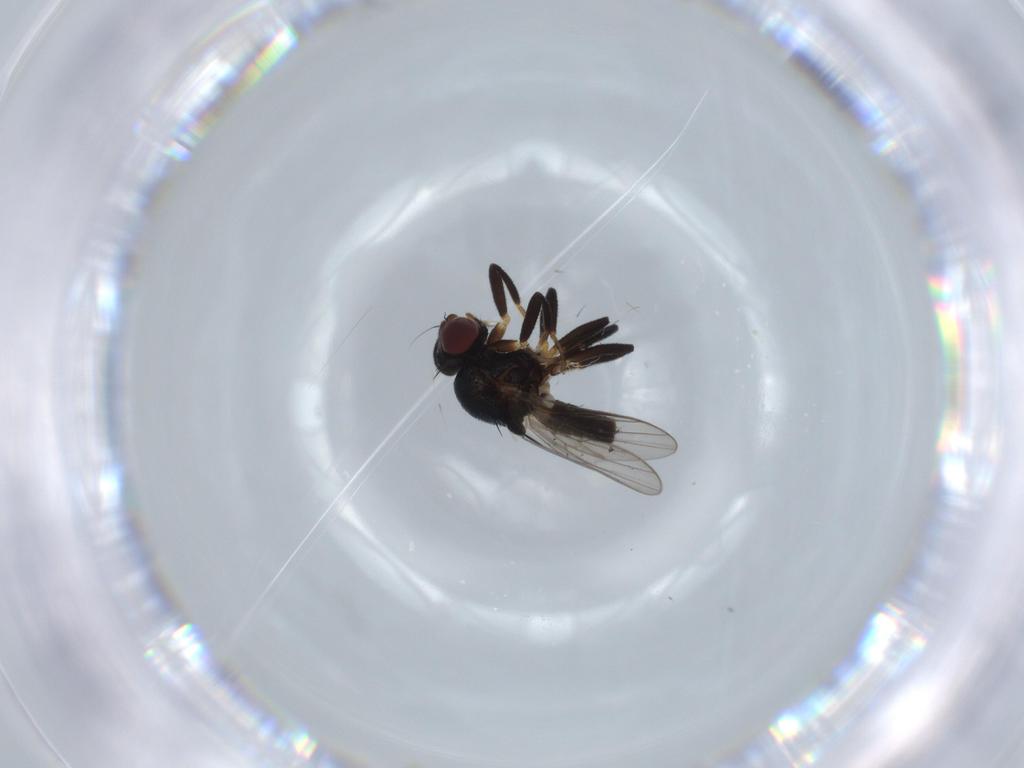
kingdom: Animalia
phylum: Arthropoda
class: Insecta
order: Diptera
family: Chloropidae
